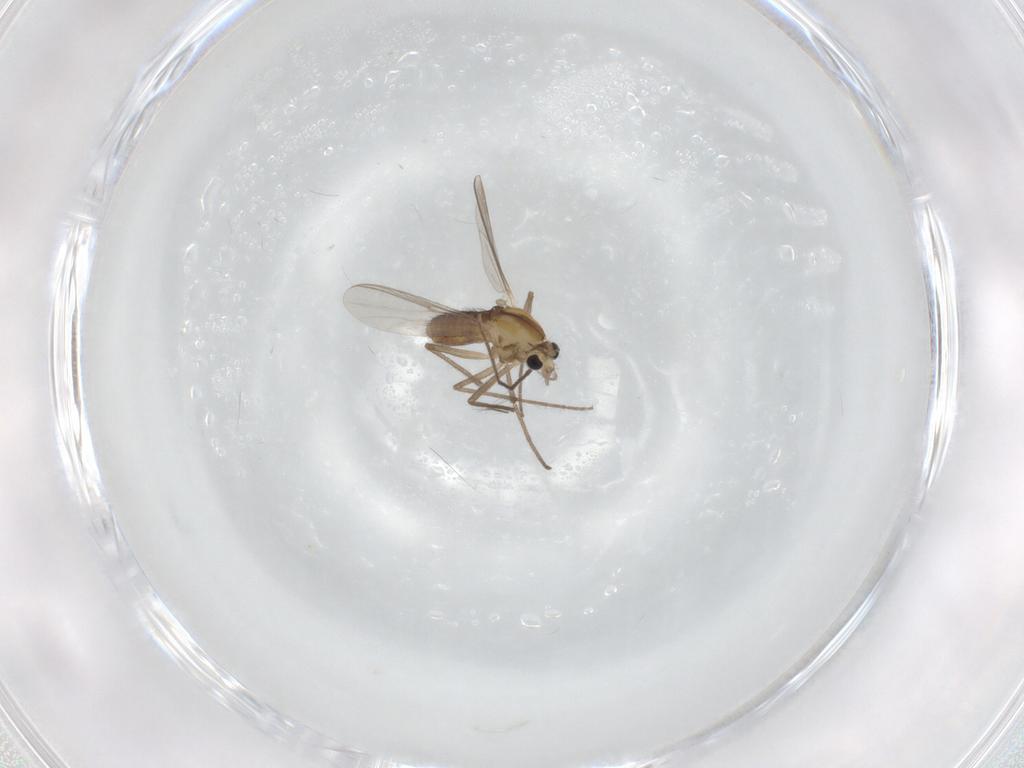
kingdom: Animalia
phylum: Arthropoda
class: Insecta
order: Diptera
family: Chironomidae
